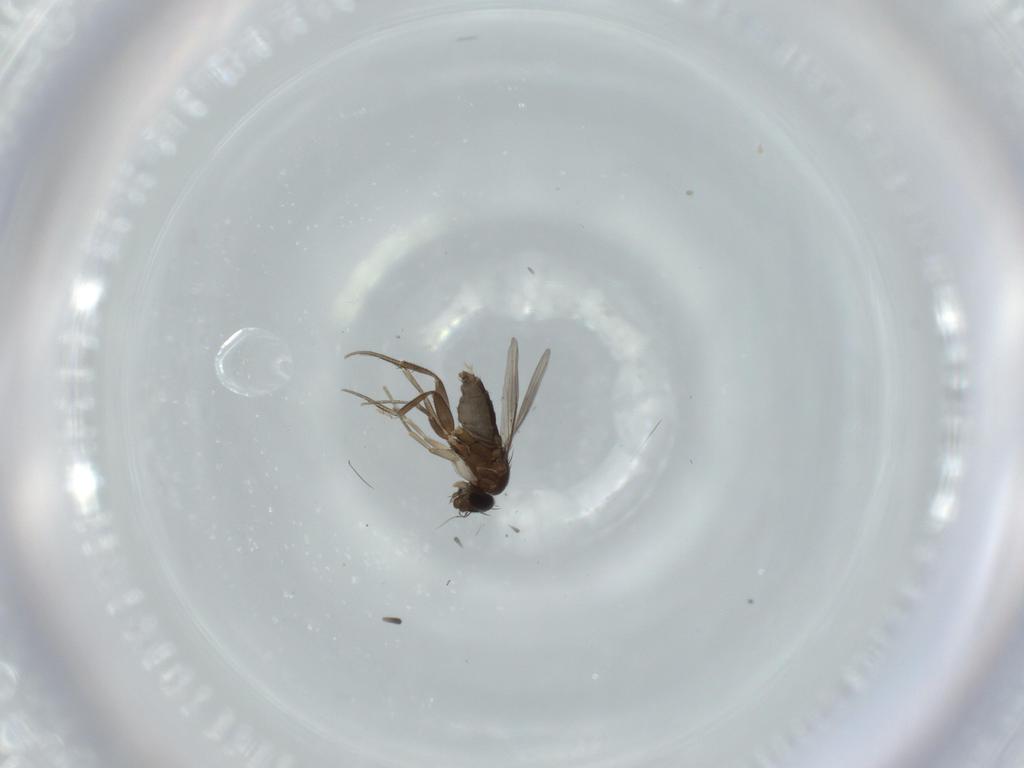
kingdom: Animalia
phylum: Arthropoda
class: Insecta
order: Diptera
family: Phoridae
